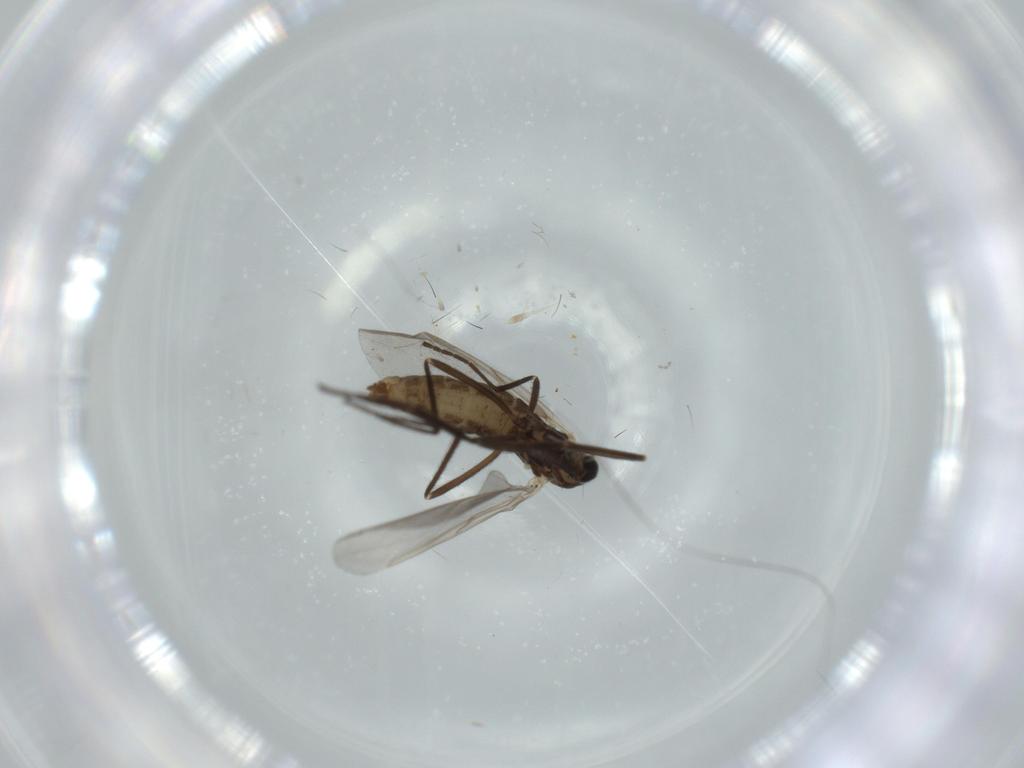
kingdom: Animalia
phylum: Arthropoda
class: Insecta
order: Diptera
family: Cecidomyiidae
